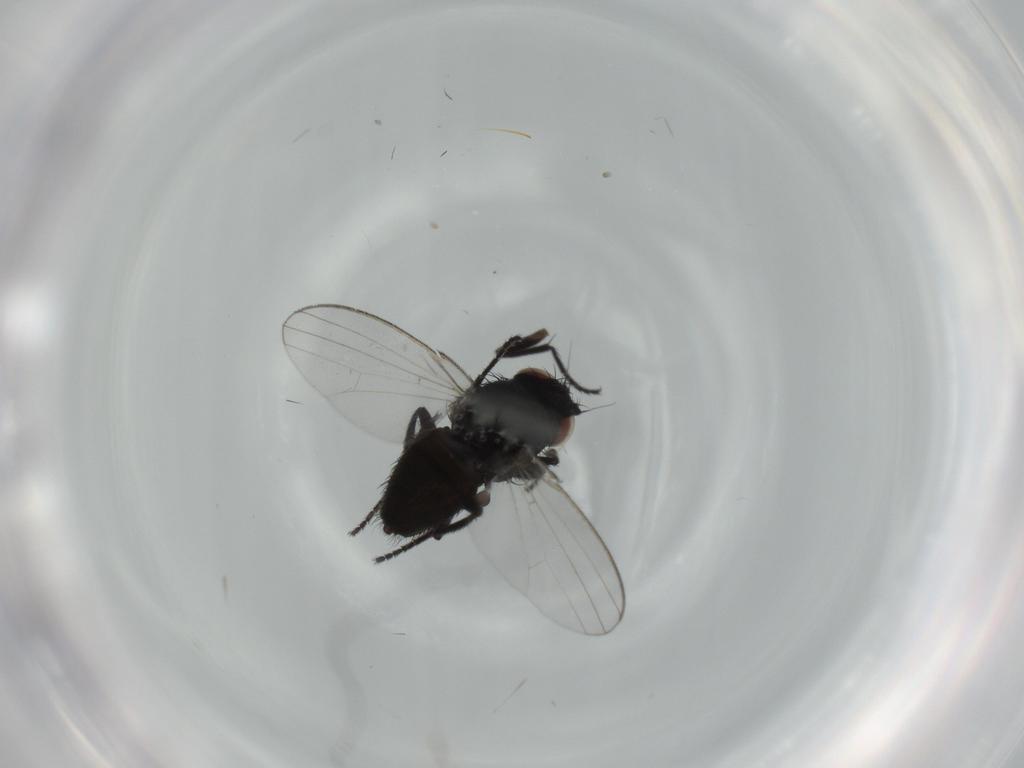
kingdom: Animalia
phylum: Arthropoda
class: Insecta
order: Diptera
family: Milichiidae
